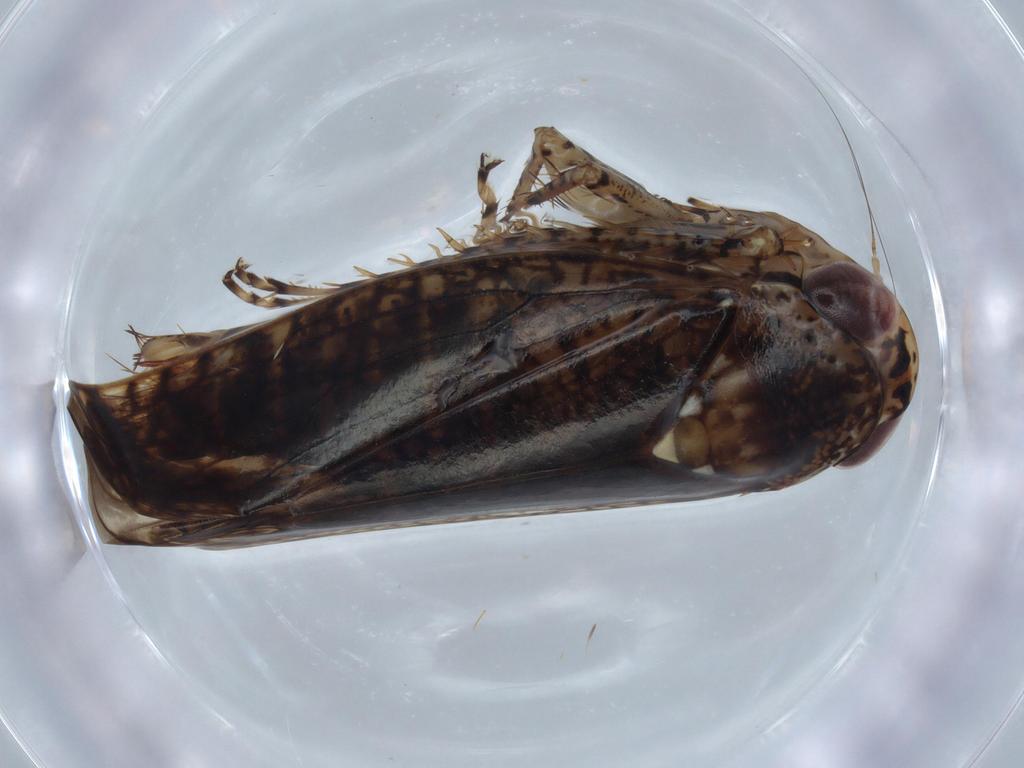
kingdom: Animalia
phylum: Arthropoda
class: Insecta
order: Hemiptera
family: Cicadellidae
